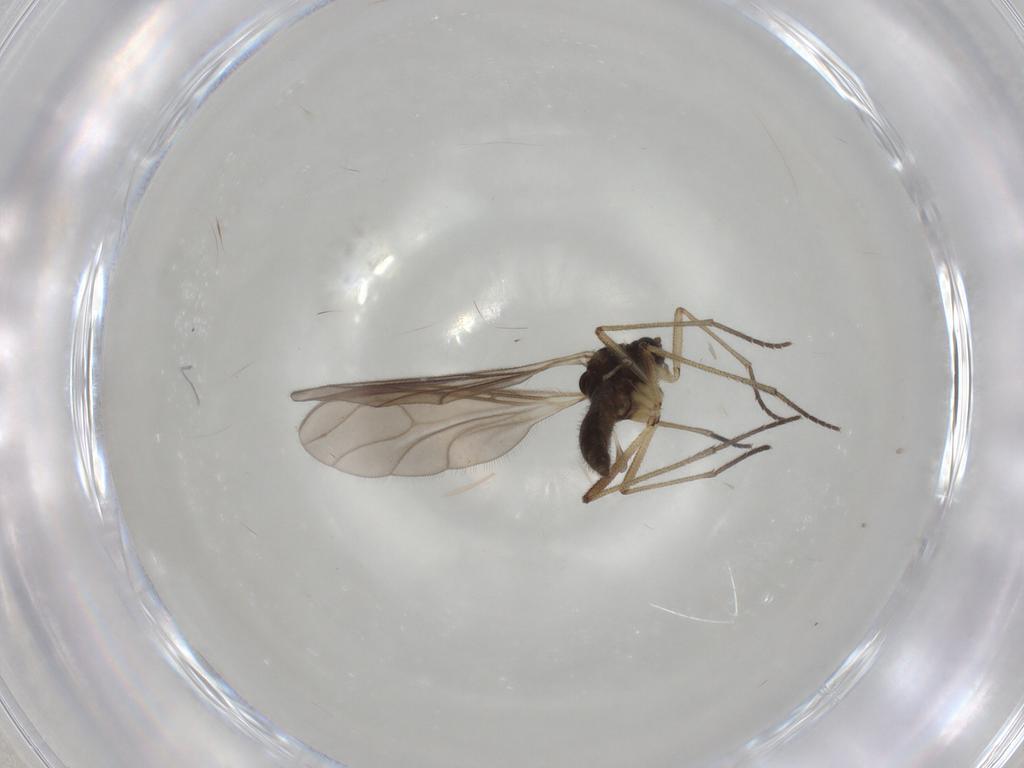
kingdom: Animalia
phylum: Arthropoda
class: Insecta
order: Diptera
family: Sciaridae
